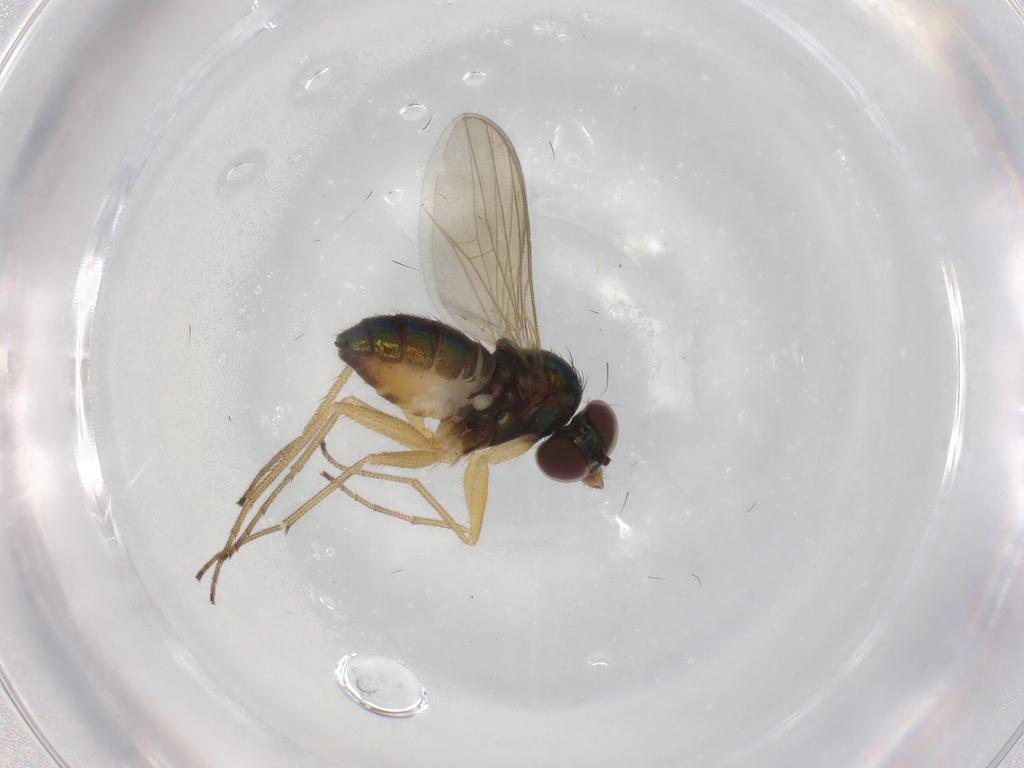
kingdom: Animalia
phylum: Arthropoda
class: Insecta
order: Diptera
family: Dolichopodidae
